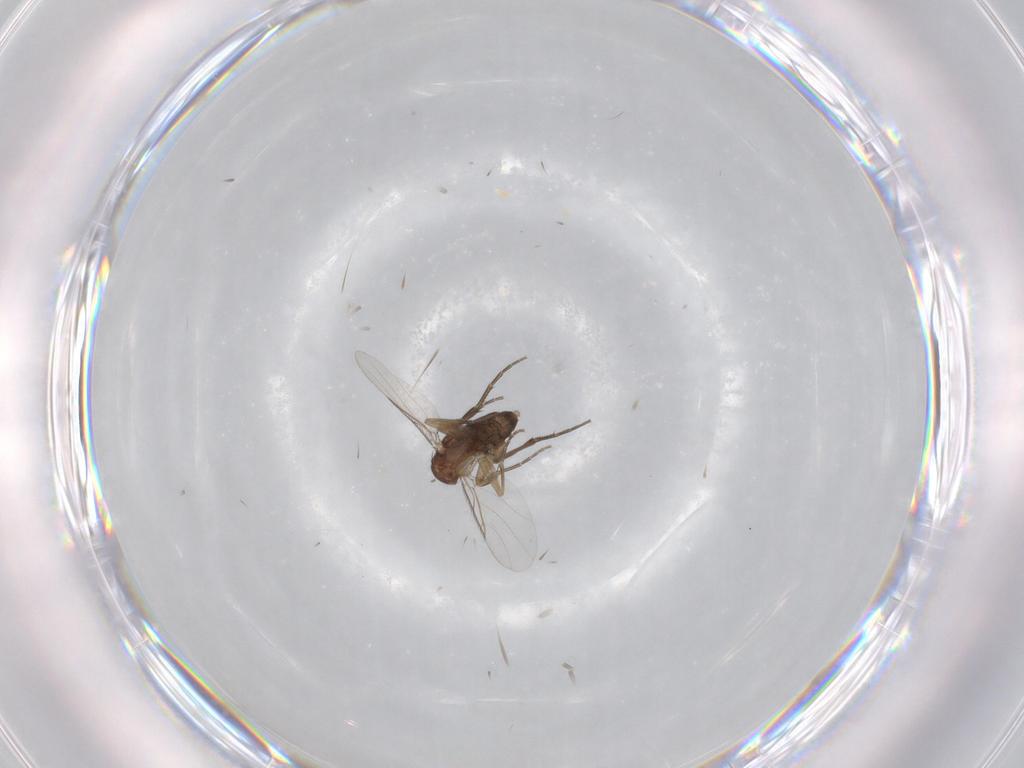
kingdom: Animalia
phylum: Arthropoda
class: Insecta
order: Diptera
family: Phoridae
